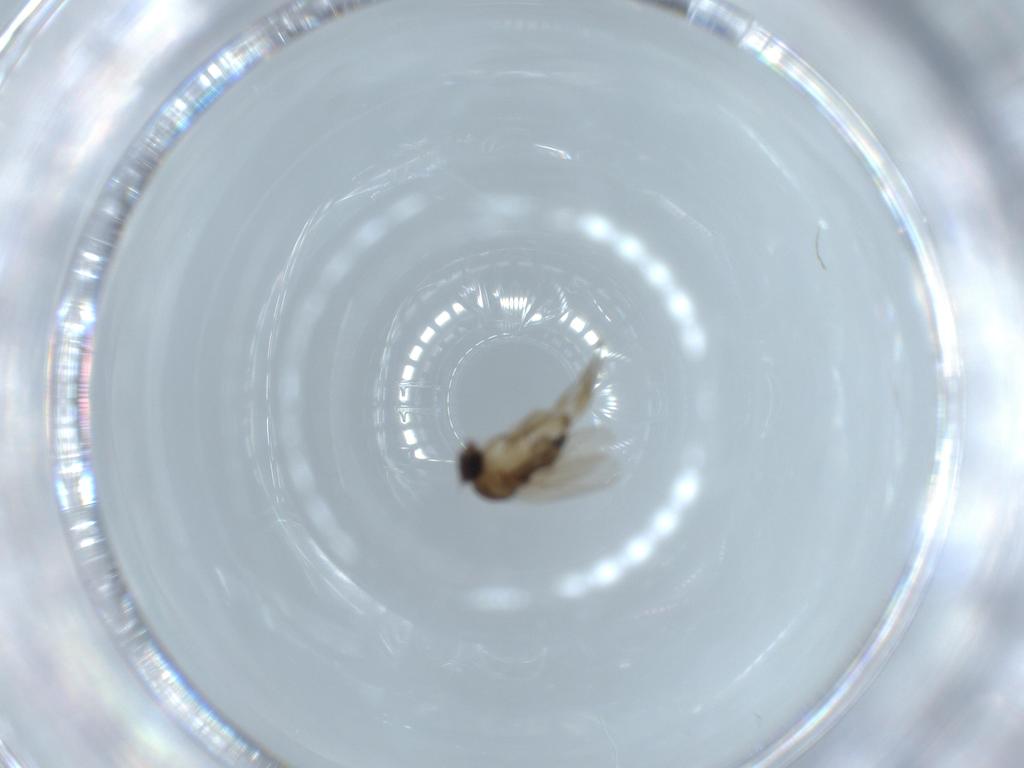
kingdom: Animalia
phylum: Arthropoda
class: Insecta
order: Diptera
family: Phoridae
